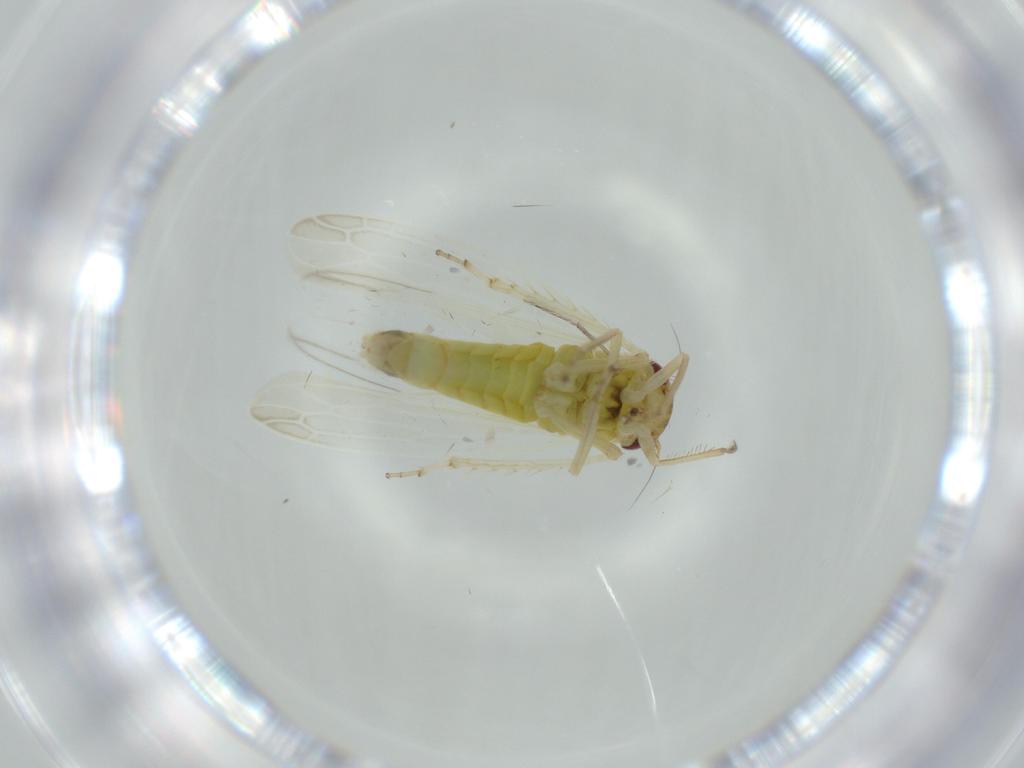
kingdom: Animalia
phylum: Arthropoda
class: Insecta
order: Hemiptera
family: Cicadellidae
